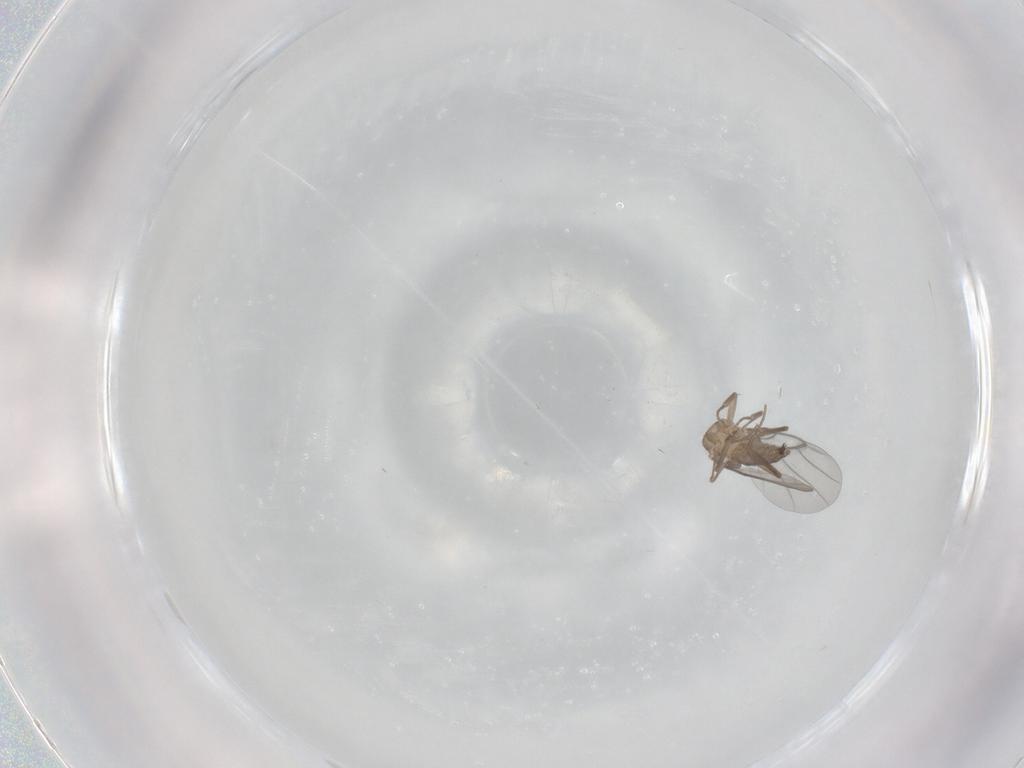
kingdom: Animalia
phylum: Arthropoda
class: Insecta
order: Diptera
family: Sciaridae
